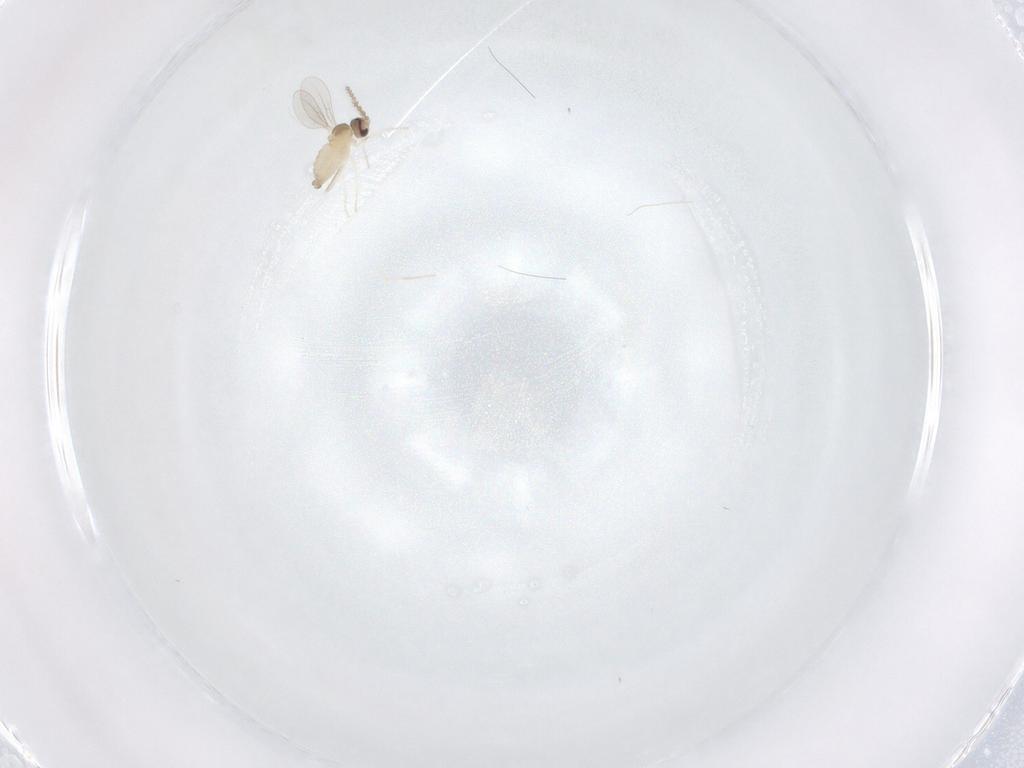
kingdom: Animalia
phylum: Arthropoda
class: Insecta
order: Diptera
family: Cecidomyiidae
